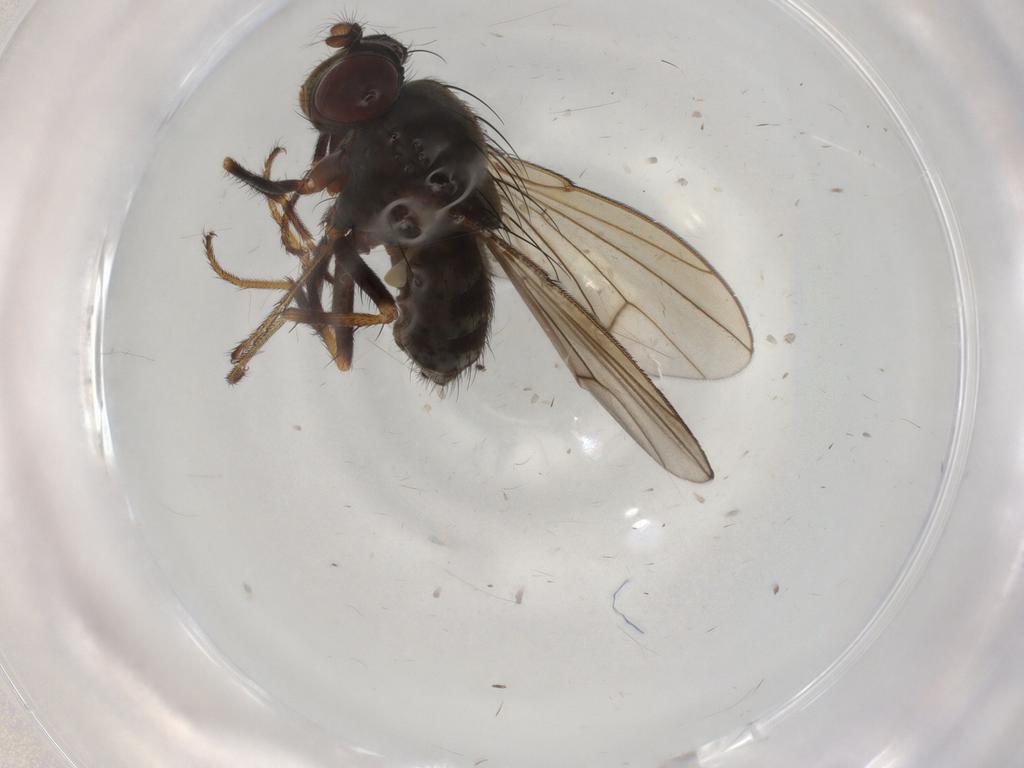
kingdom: Animalia
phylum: Arthropoda
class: Insecta
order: Diptera
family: Ephydridae
